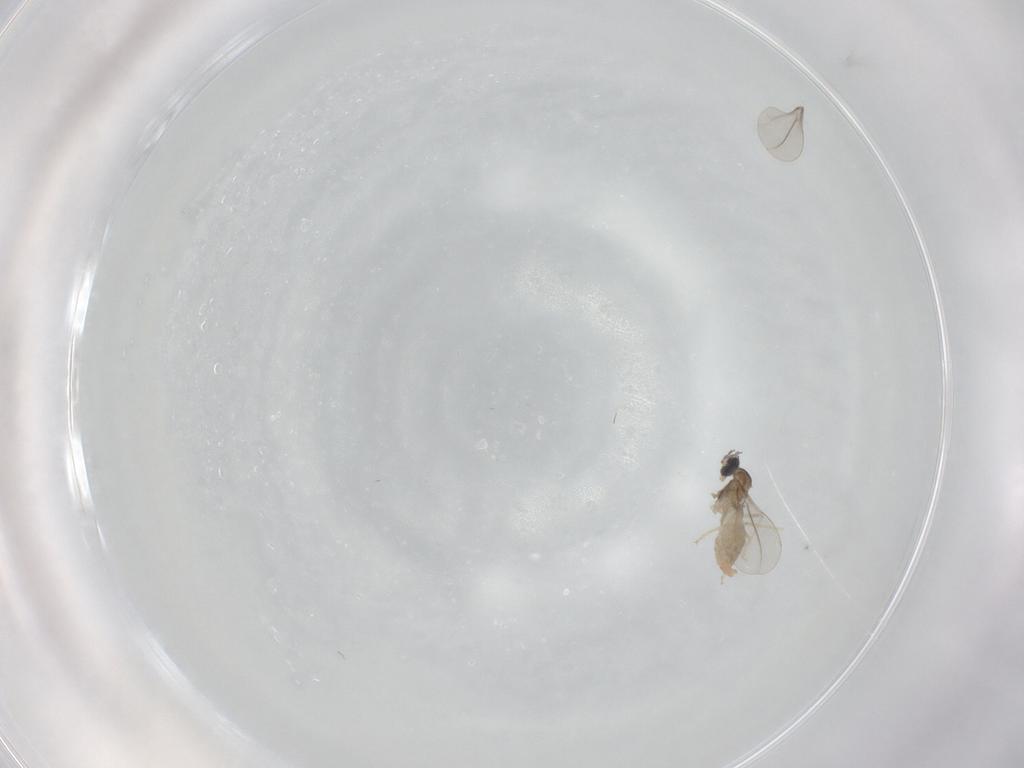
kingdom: Animalia
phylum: Arthropoda
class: Insecta
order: Diptera
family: Cecidomyiidae
